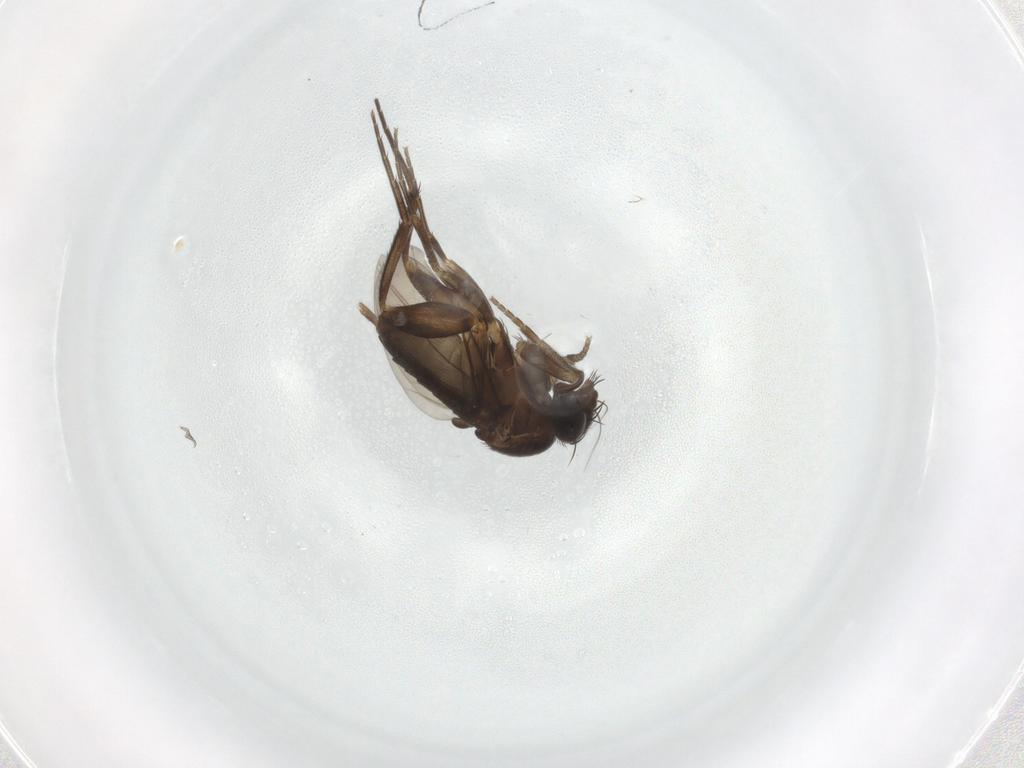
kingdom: Animalia
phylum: Arthropoda
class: Insecta
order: Diptera
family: Phoridae
